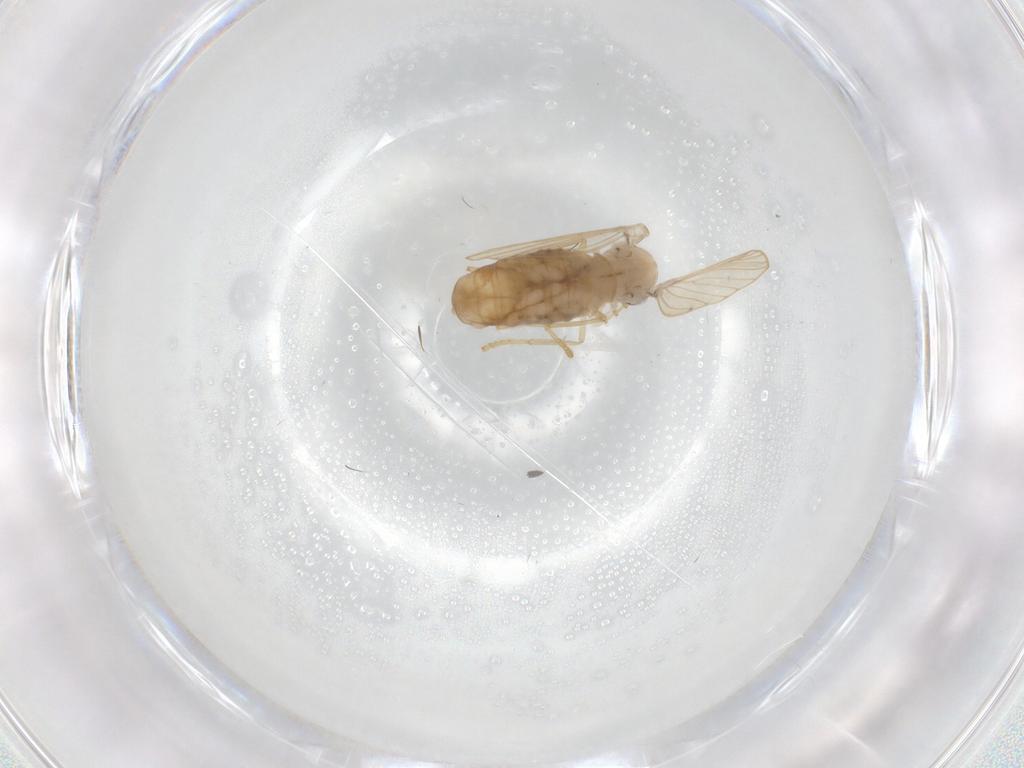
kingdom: Animalia
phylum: Arthropoda
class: Insecta
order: Diptera
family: Psychodidae
